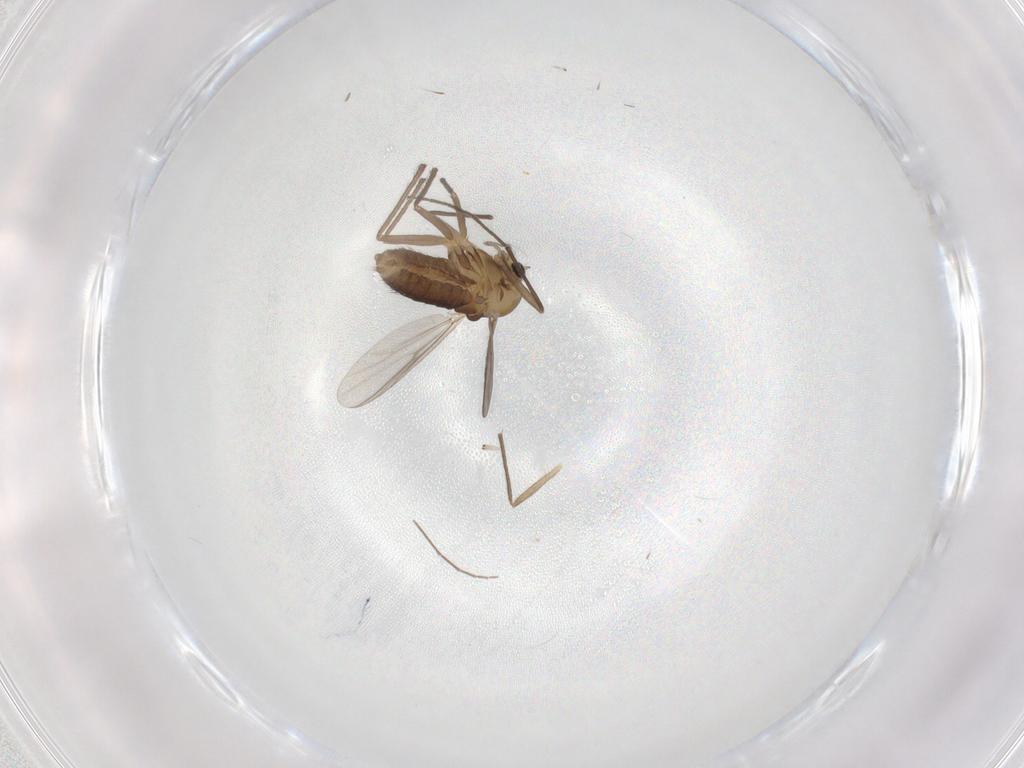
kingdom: Animalia
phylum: Arthropoda
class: Insecta
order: Diptera
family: Chironomidae
